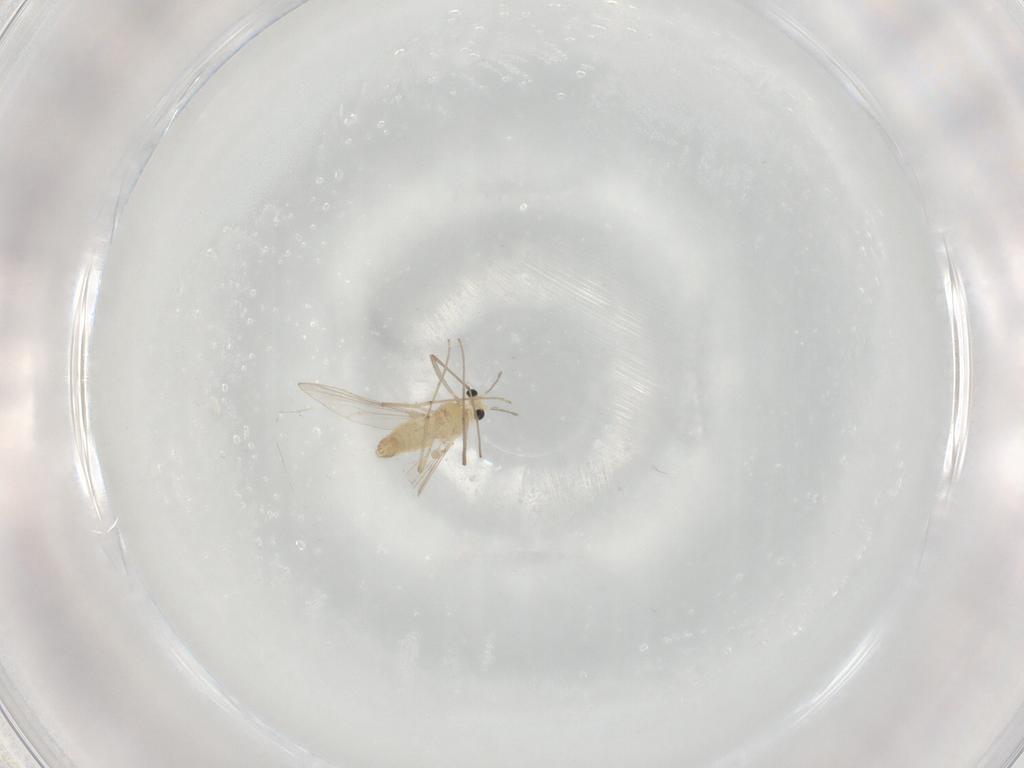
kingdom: Animalia
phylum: Arthropoda
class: Insecta
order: Diptera
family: Chironomidae
